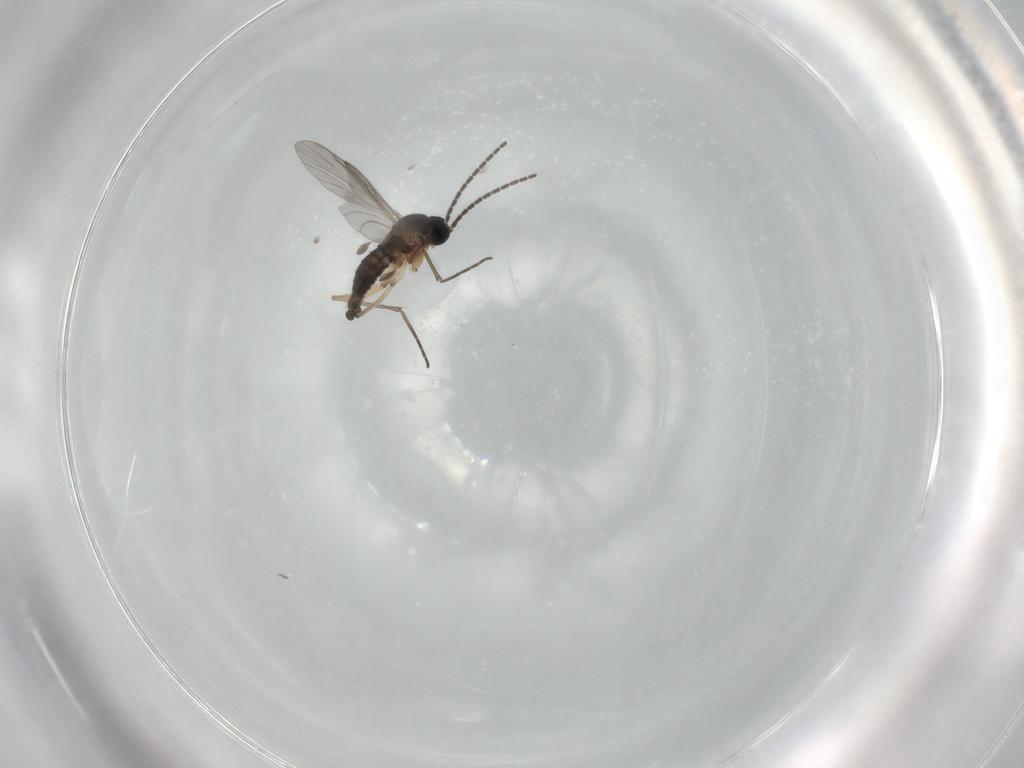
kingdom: Animalia
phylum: Arthropoda
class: Insecta
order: Diptera
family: Sciaridae
